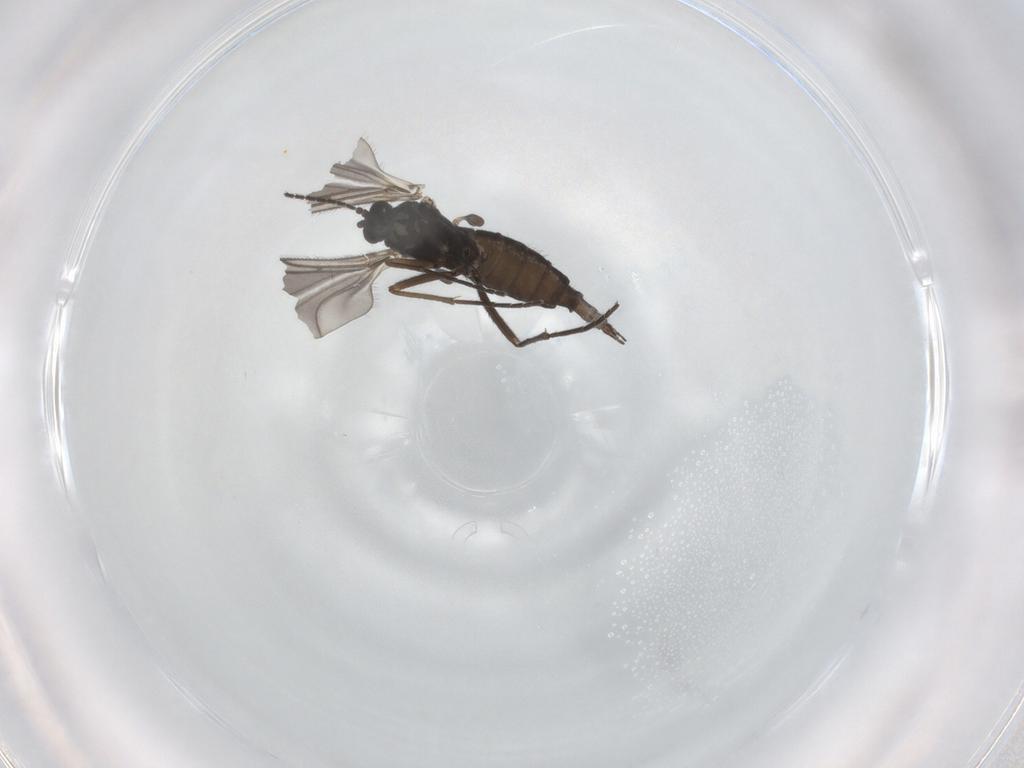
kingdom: Animalia
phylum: Arthropoda
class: Insecta
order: Diptera
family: Sciaridae
